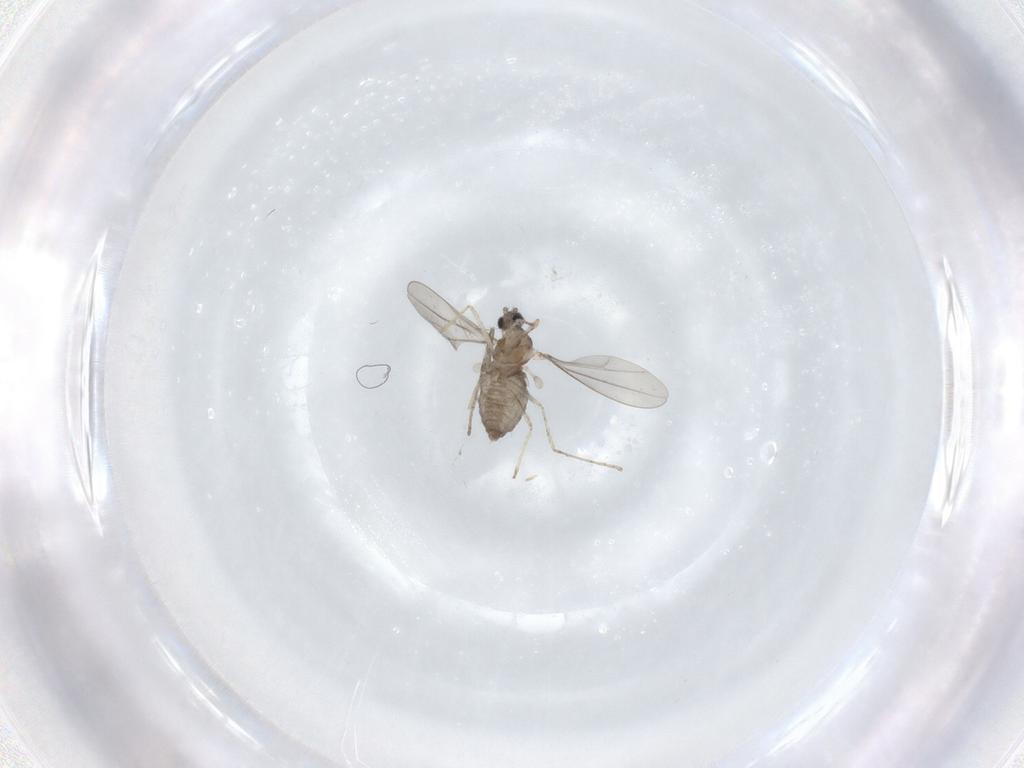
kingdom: Animalia
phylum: Arthropoda
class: Insecta
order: Diptera
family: Cecidomyiidae
